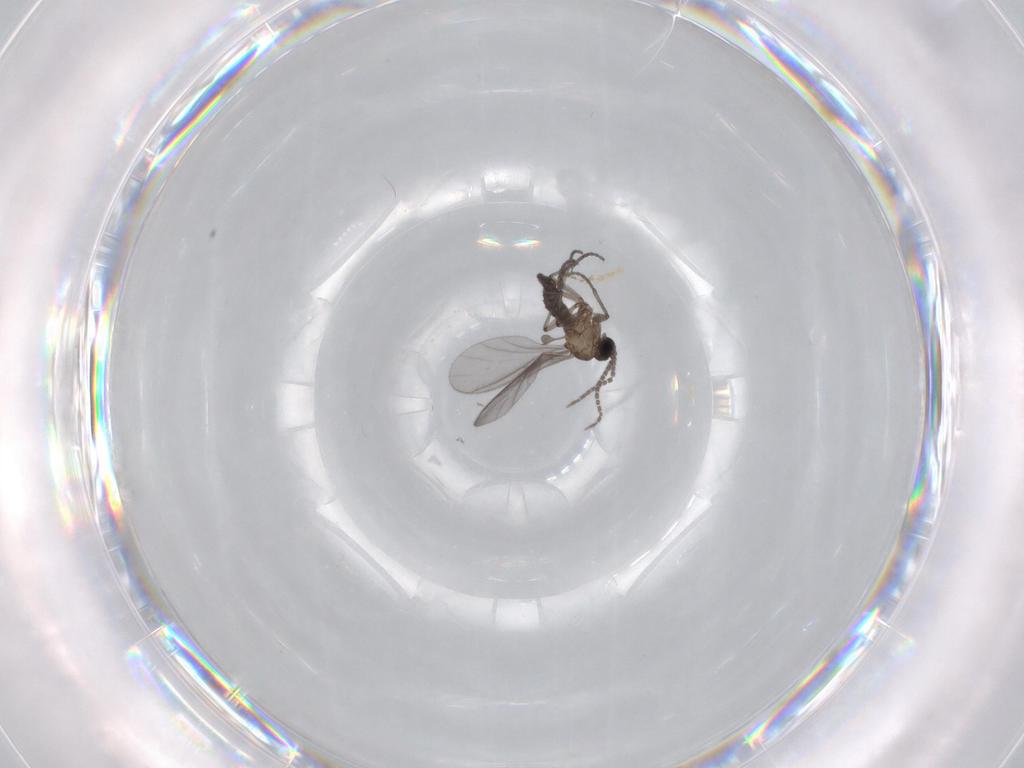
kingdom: Animalia
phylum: Arthropoda
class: Insecta
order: Diptera
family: Sciaridae
